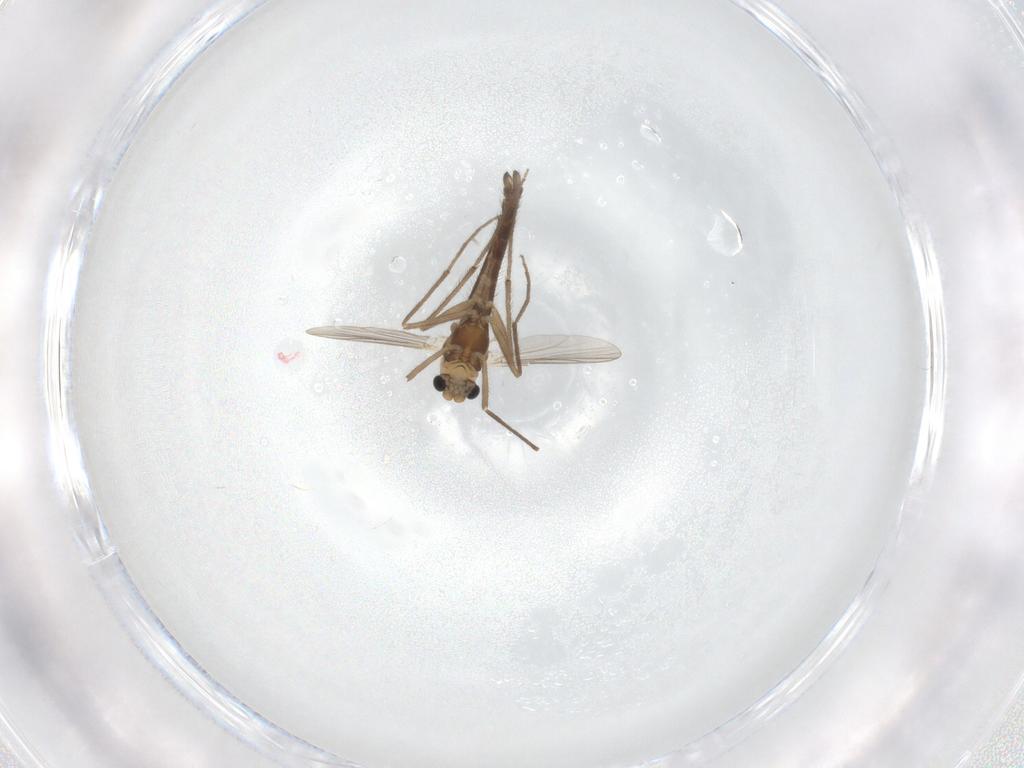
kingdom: Animalia
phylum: Arthropoda
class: Insecta
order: Diptera
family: Chironomidae
